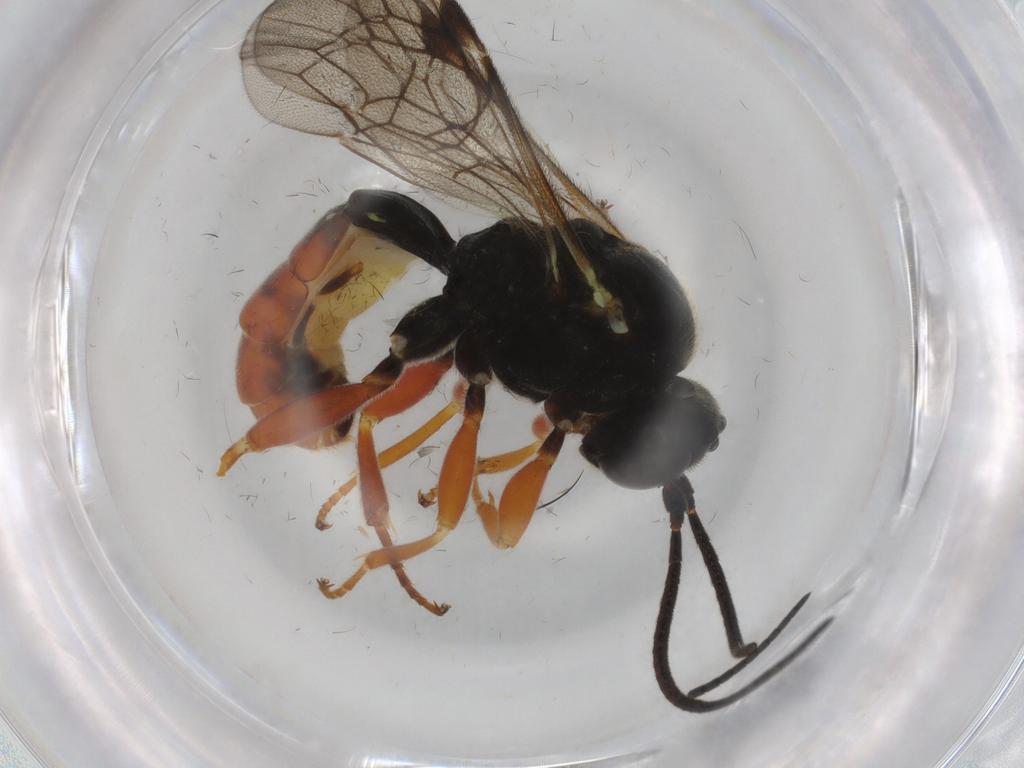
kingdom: Animalia
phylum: Arthropoda
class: Insecta
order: Hymenoptera
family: Ichneumonidae
